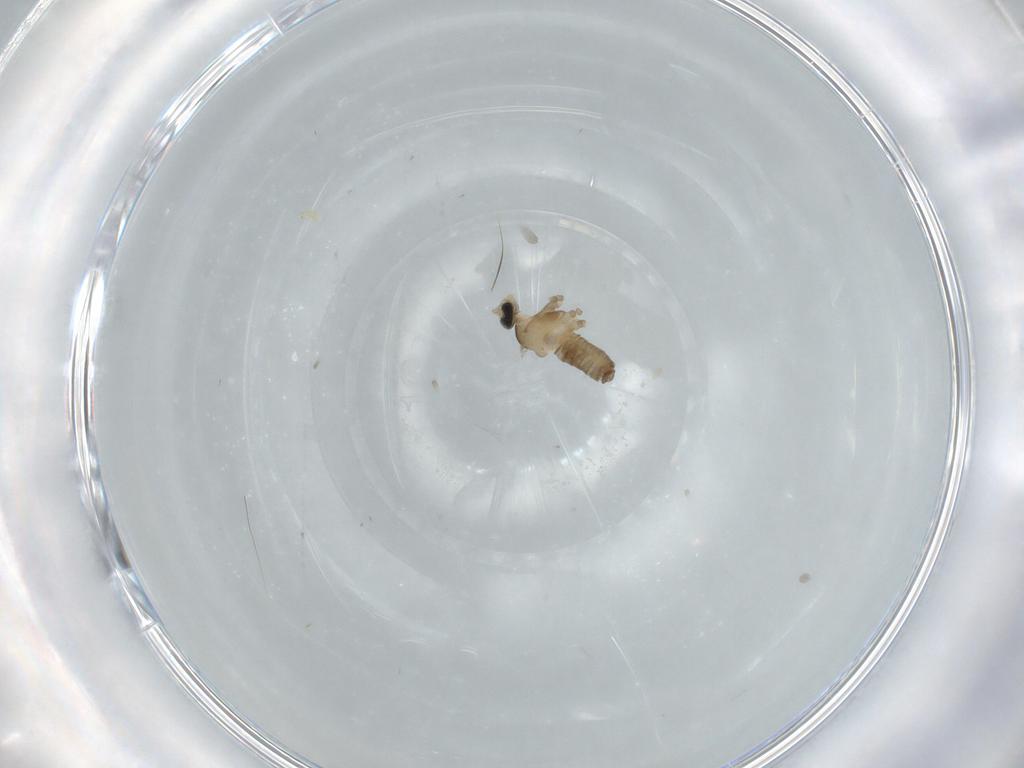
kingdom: Animalia
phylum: Arthropoda
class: Insecta
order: Diptera
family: Cecidomyiidae
